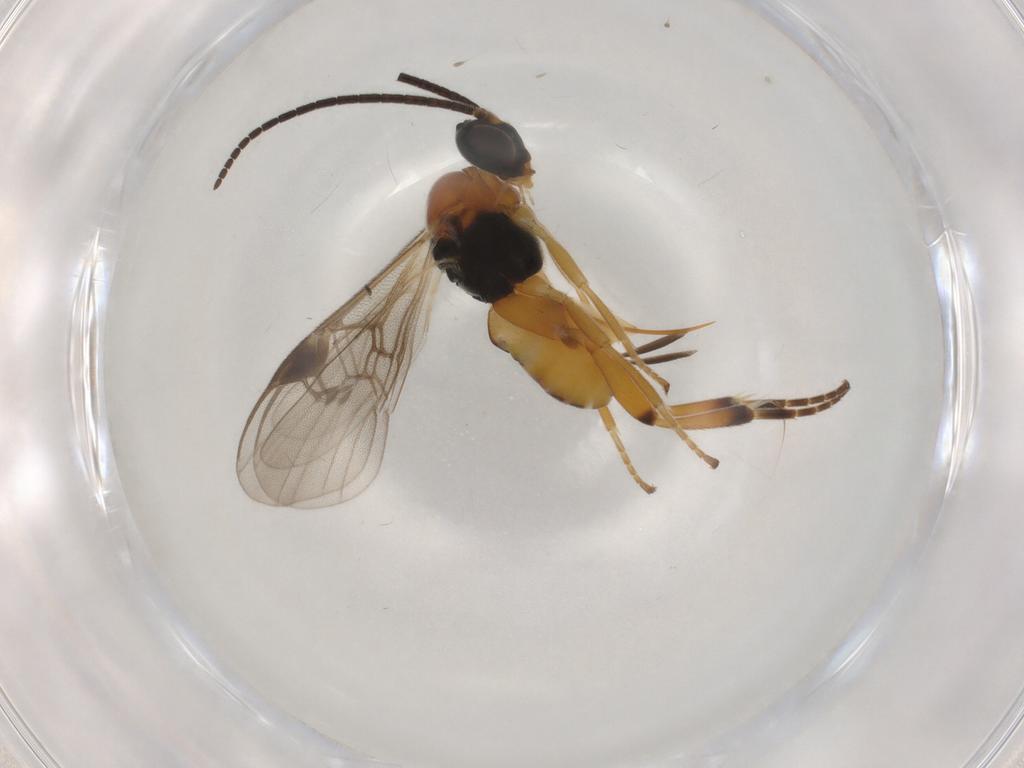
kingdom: Animalia
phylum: Arthropoda
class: Insecta
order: Hymenoptera
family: Braconidae
